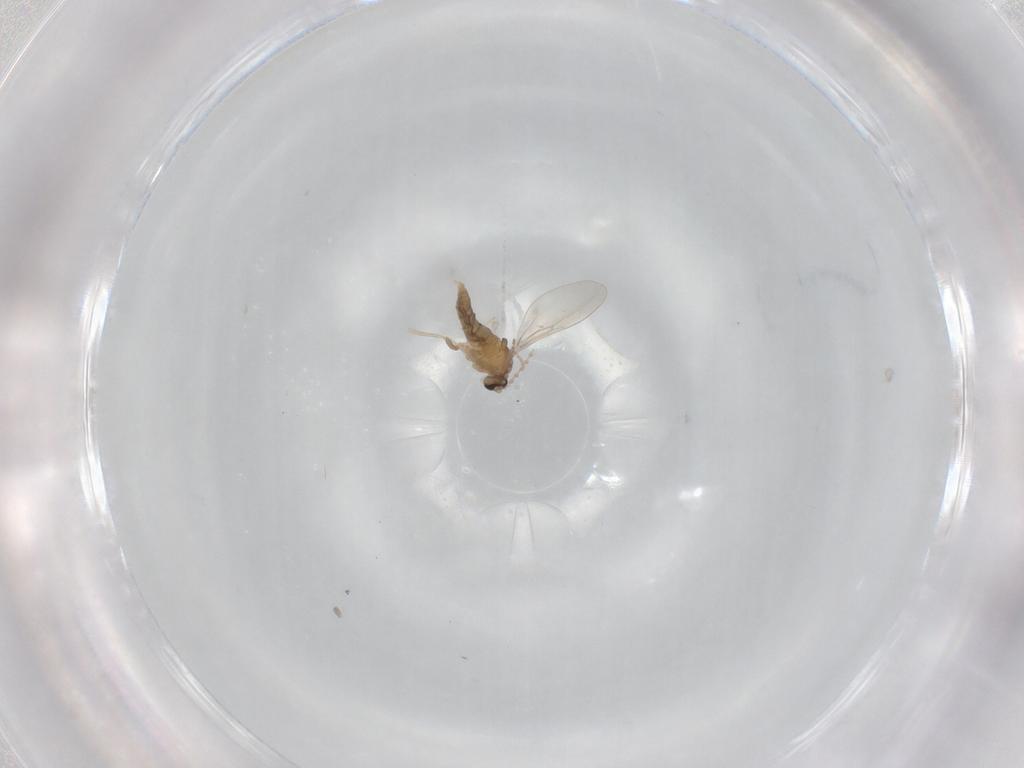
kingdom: Animalia
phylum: Arthropoda
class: Insecta
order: Diptera
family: Cecidomyiidae
